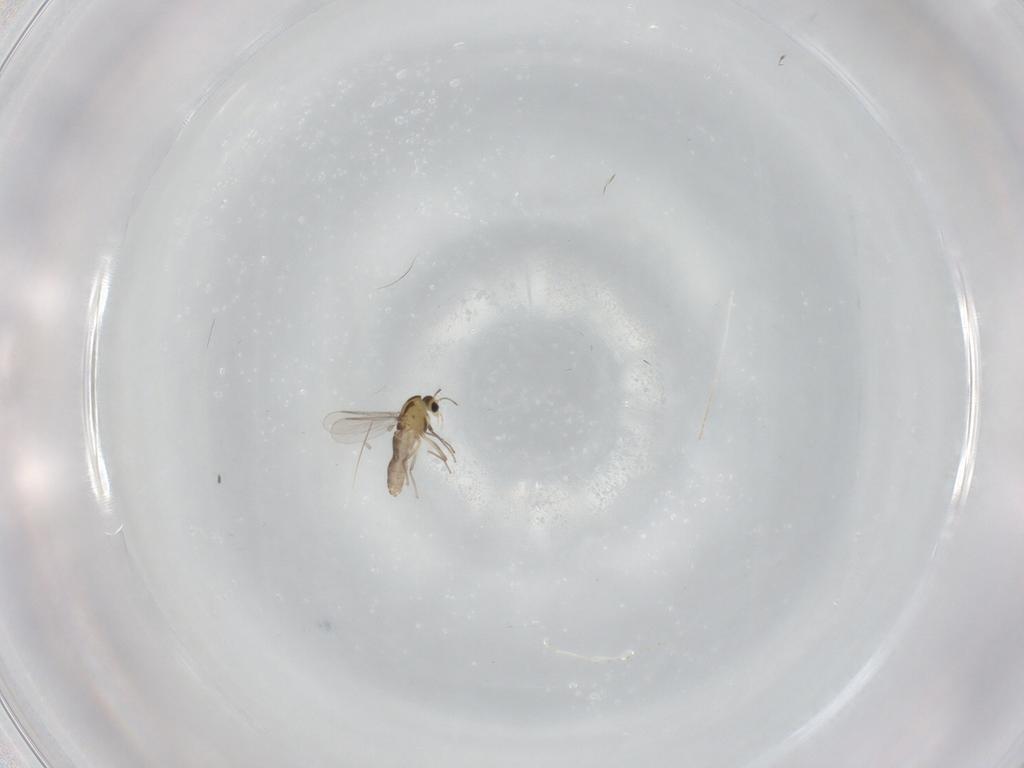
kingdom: Animalia
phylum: Arthropoda
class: Insecta
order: Diptera
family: Chironomidae
